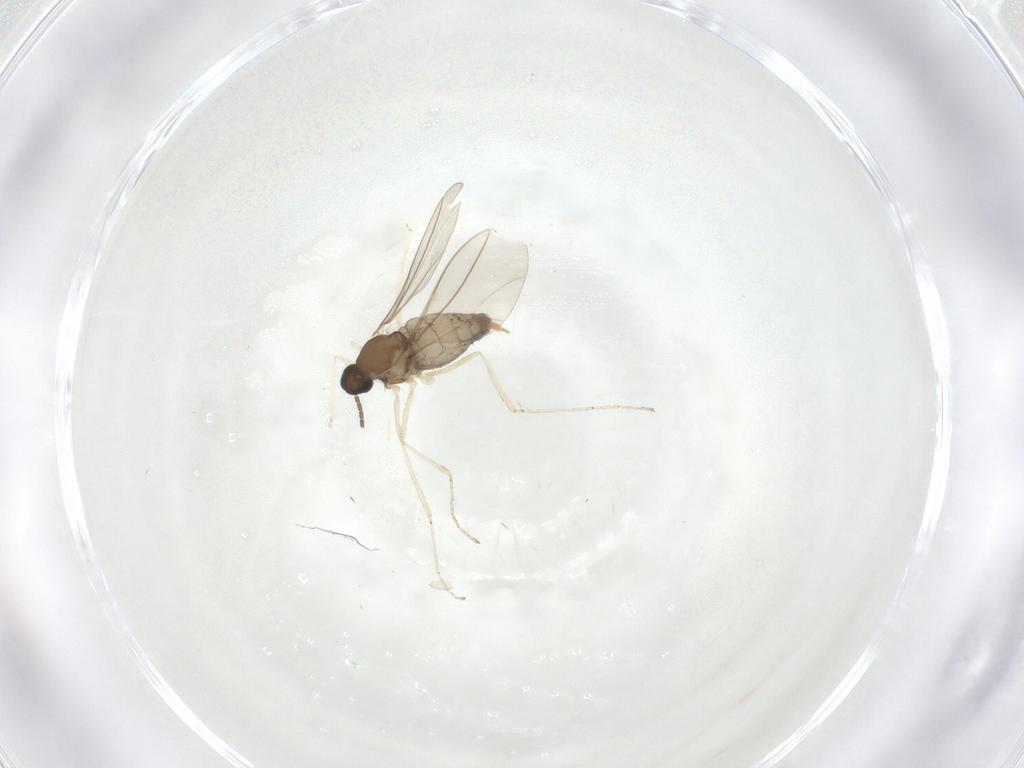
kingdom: Animalia
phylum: Arthropoda
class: Insecta
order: Diptera
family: Cecidomyiidae
